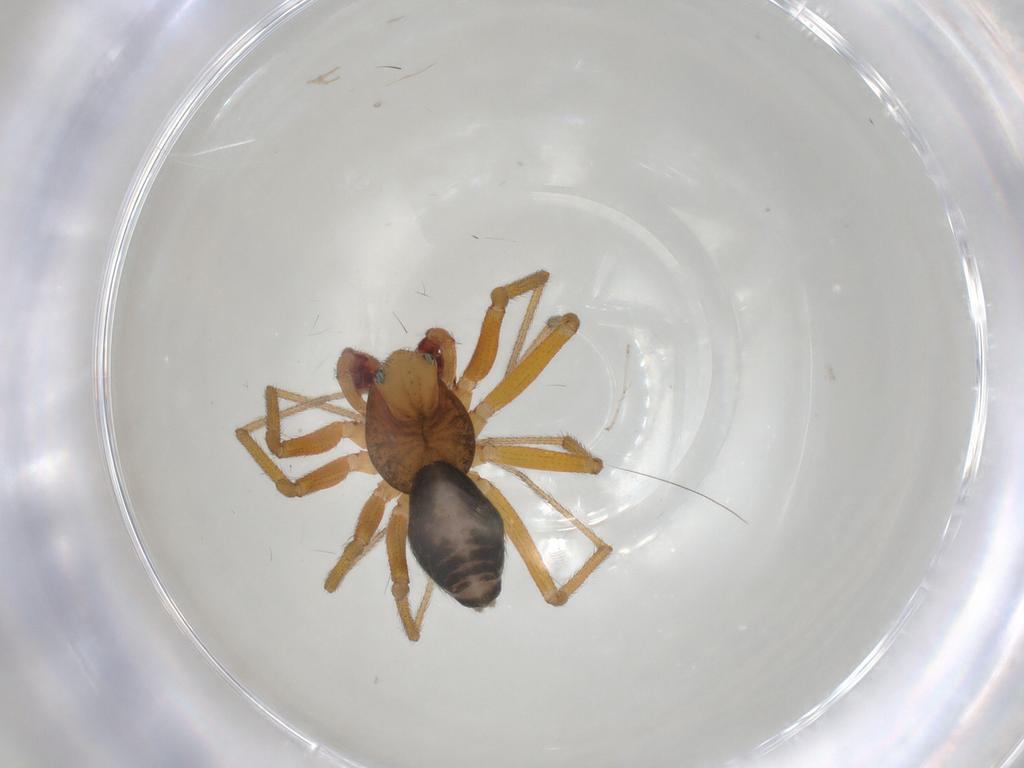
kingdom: Animalia
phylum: Arthropoda
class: Arachnida
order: Araneae
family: Linyphiidae
